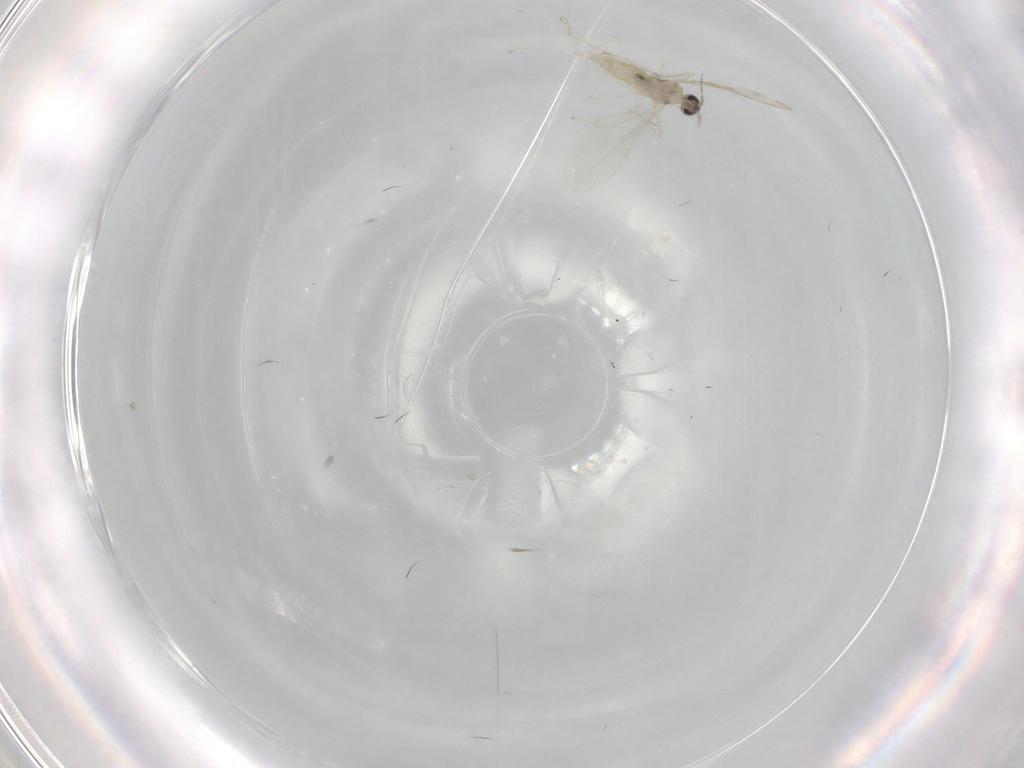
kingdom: Animalia
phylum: Arthropoda
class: Insecta
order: Diptera
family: Cecidomyiidae
